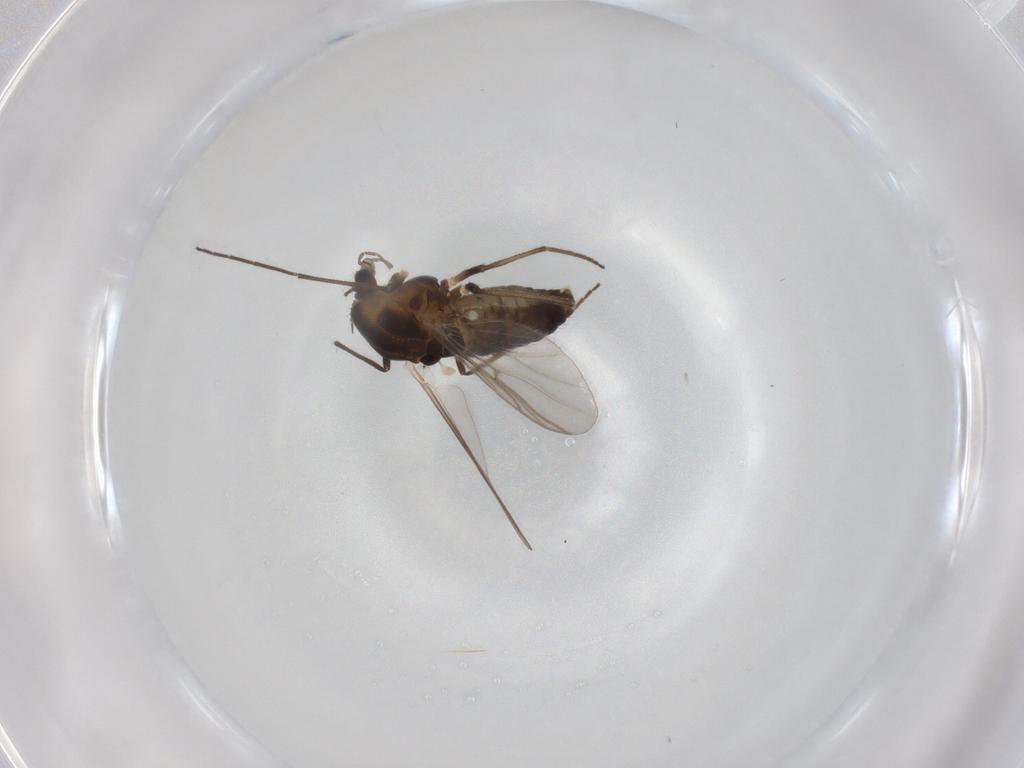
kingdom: Animalia
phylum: Arthropoda
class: Insecta
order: Diptera
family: Chironomidae
